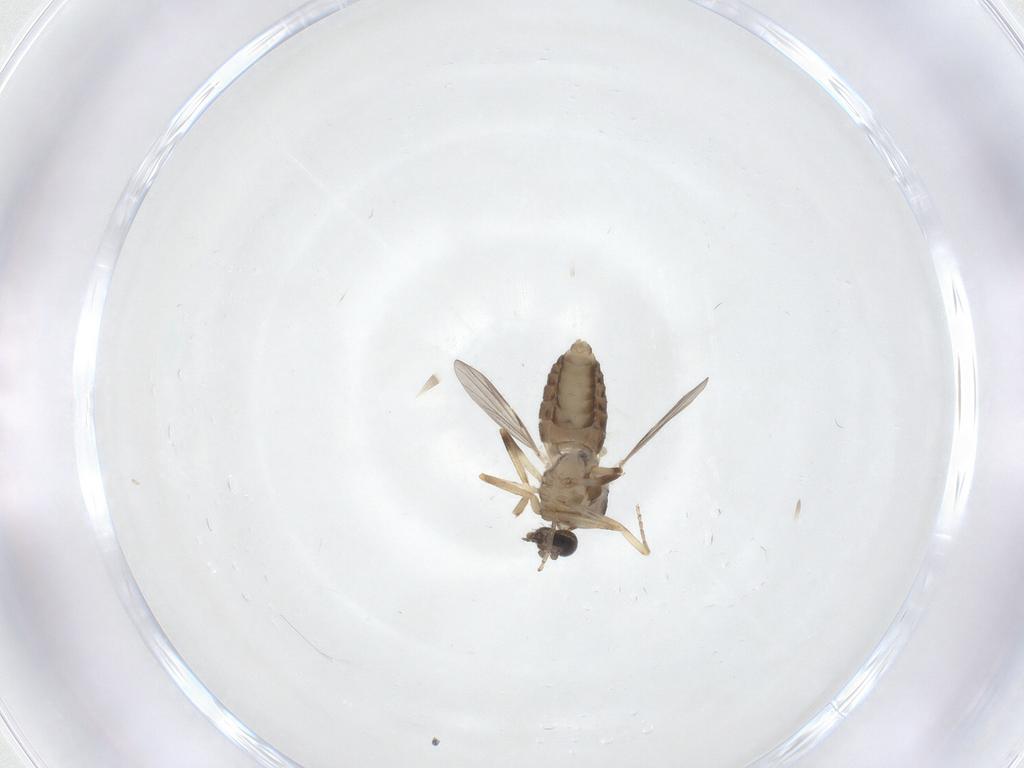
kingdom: Animalia
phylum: Arthropoda
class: Insecta
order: Diptera
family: Ceratopogonidae
